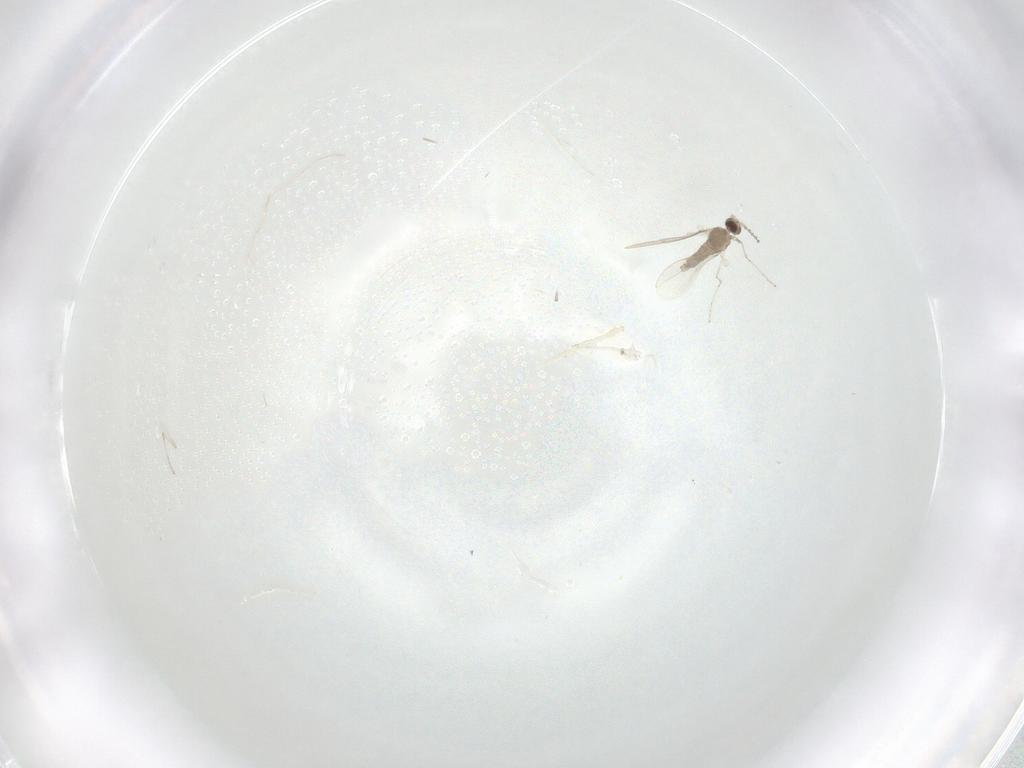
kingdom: Animalia
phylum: Arthropoda
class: Insecta
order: Diptera
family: Cecidomyiidae
